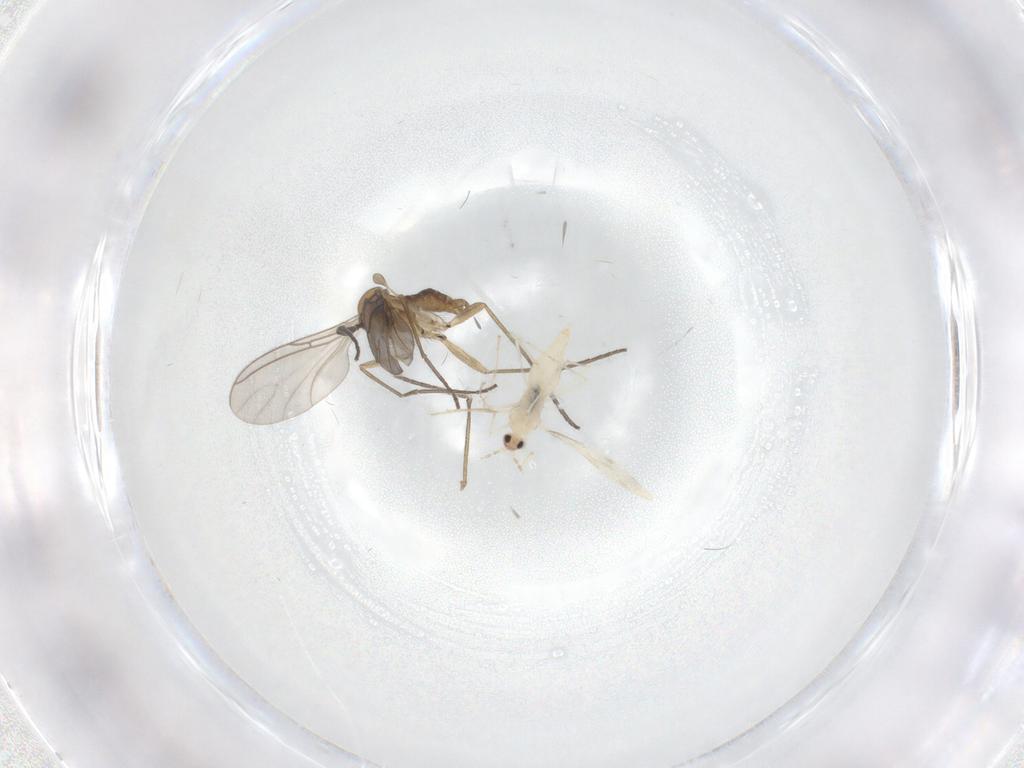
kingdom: Animalia
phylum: Arthropoda
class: Insecta
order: Diptera
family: Sciaridae
